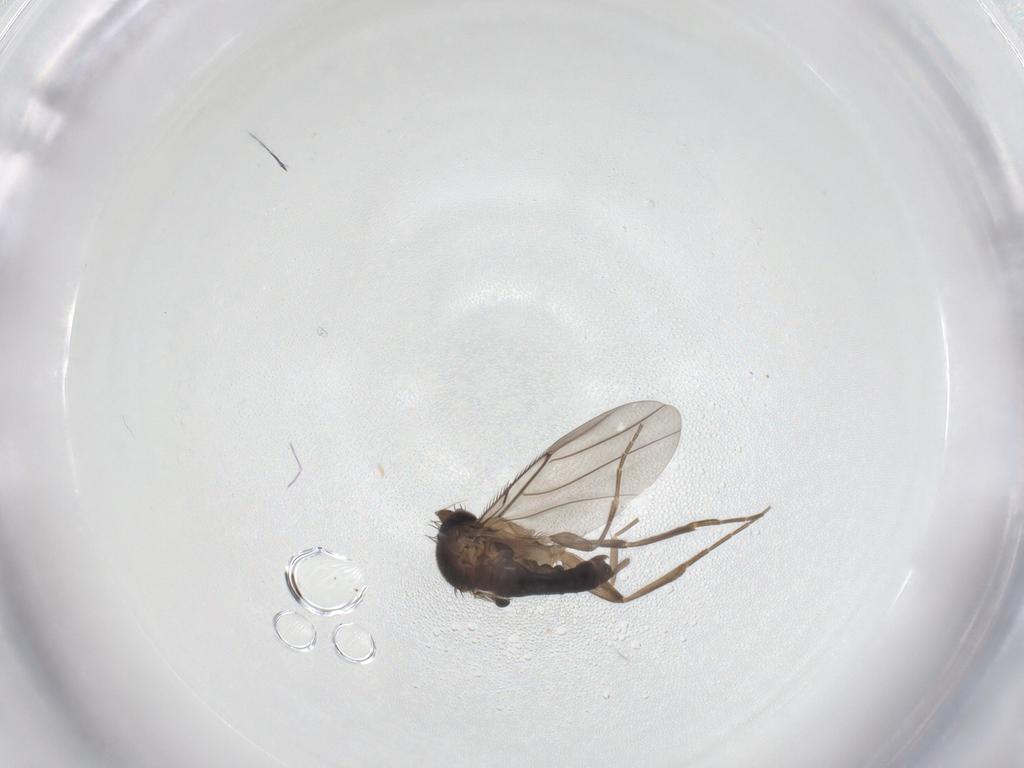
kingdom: Animalia
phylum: Arthropoda
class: Insecta
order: Diptera
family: Phoridae
